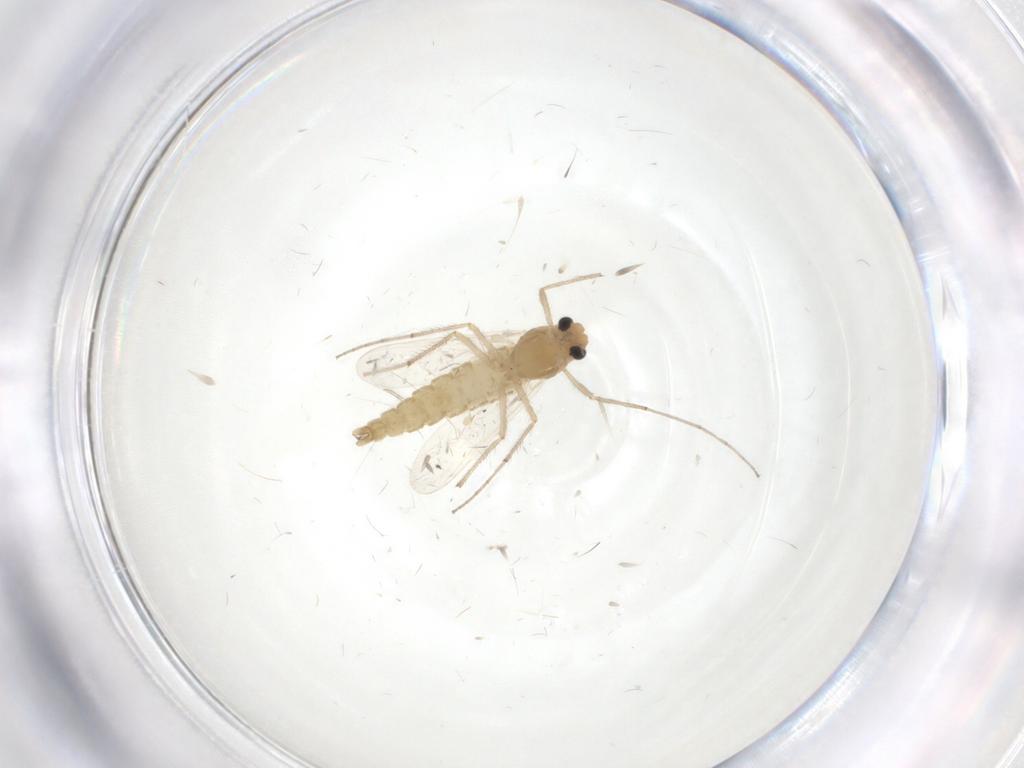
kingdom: Animalia
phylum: Arthropoda
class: Insecta
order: Diptera
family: Cecidomyiidae
